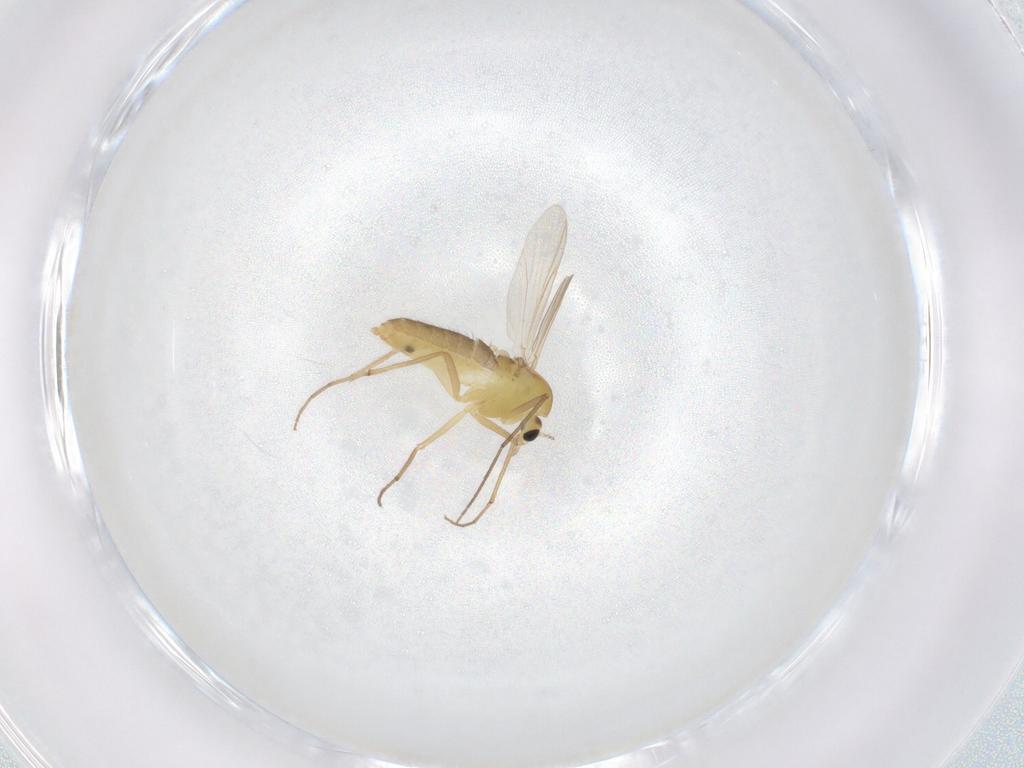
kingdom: Animalia
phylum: Arthropoda
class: Insecta
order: Diptera
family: Chironomidae
